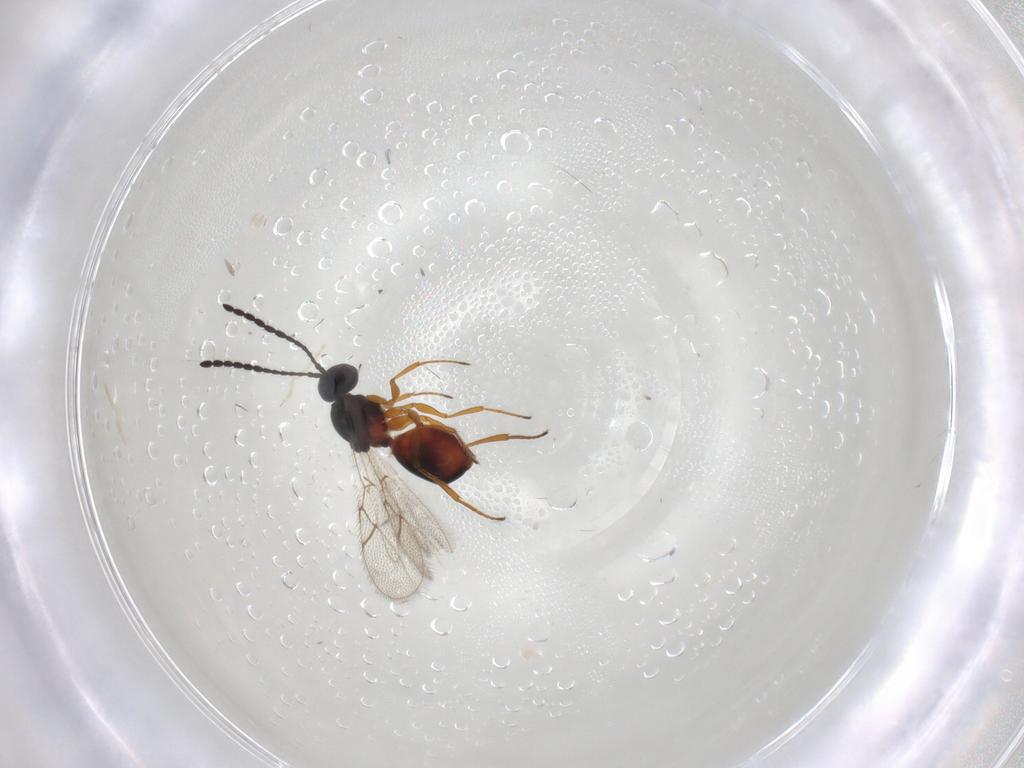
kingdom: Animalia
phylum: Arthropoda
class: Insecta
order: Hymenoptera
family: Figitidae
